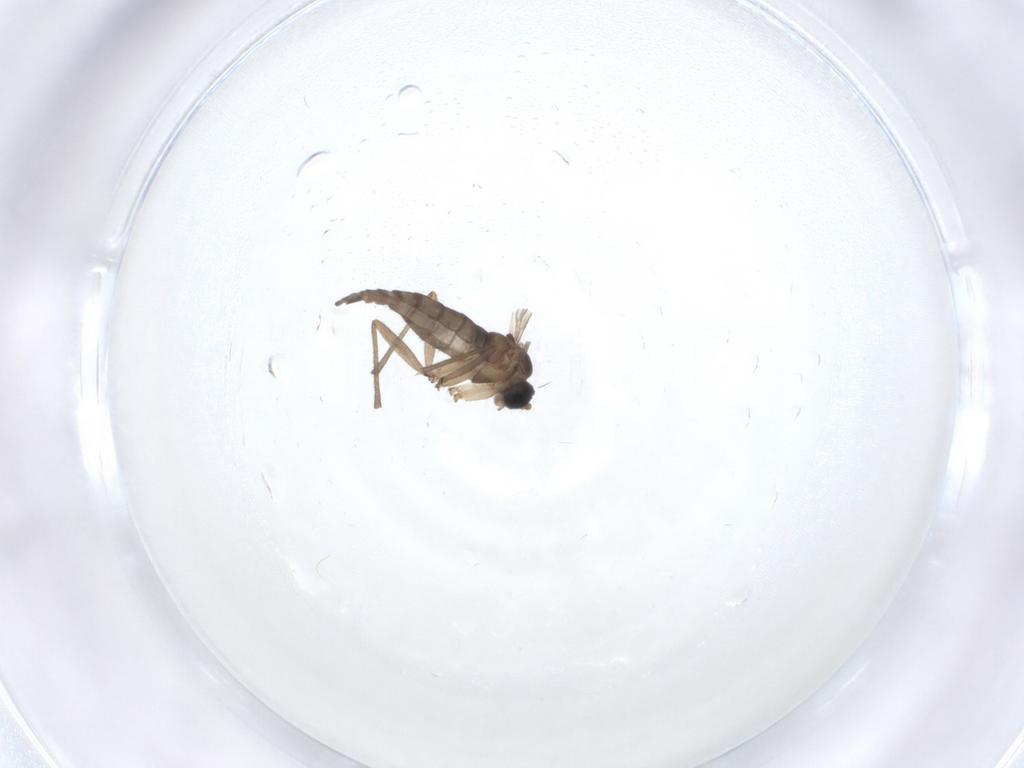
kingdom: Animalia
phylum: Arthropoda
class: Insecta
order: Diptera
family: Sciaridae
